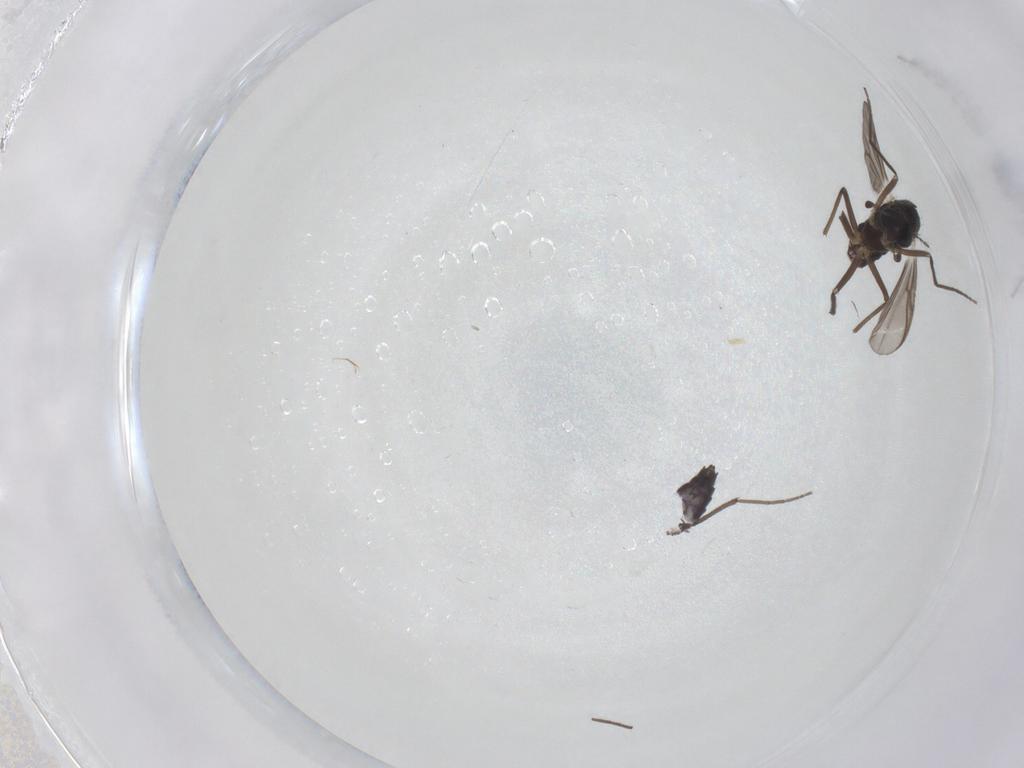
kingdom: Animalia
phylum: Arthropoda
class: Insecta
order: Diptera
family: Chironomidae
